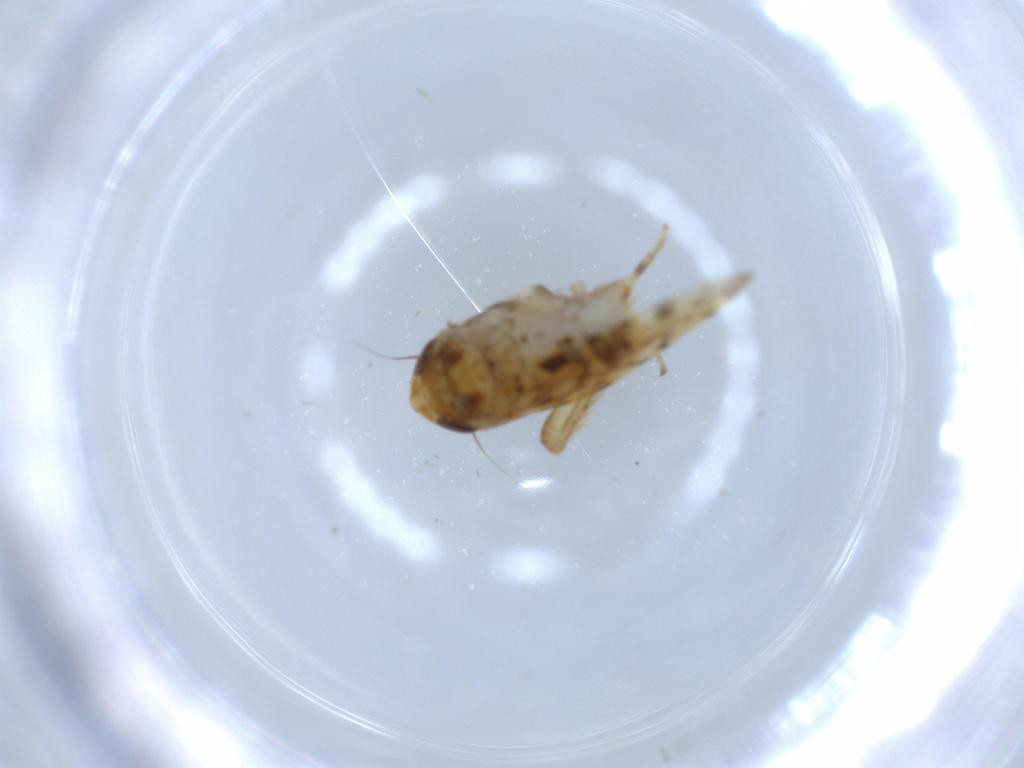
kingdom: Animalia
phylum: Arthropoda
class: Insecta
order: Hemiptera
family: Cicadellidae
